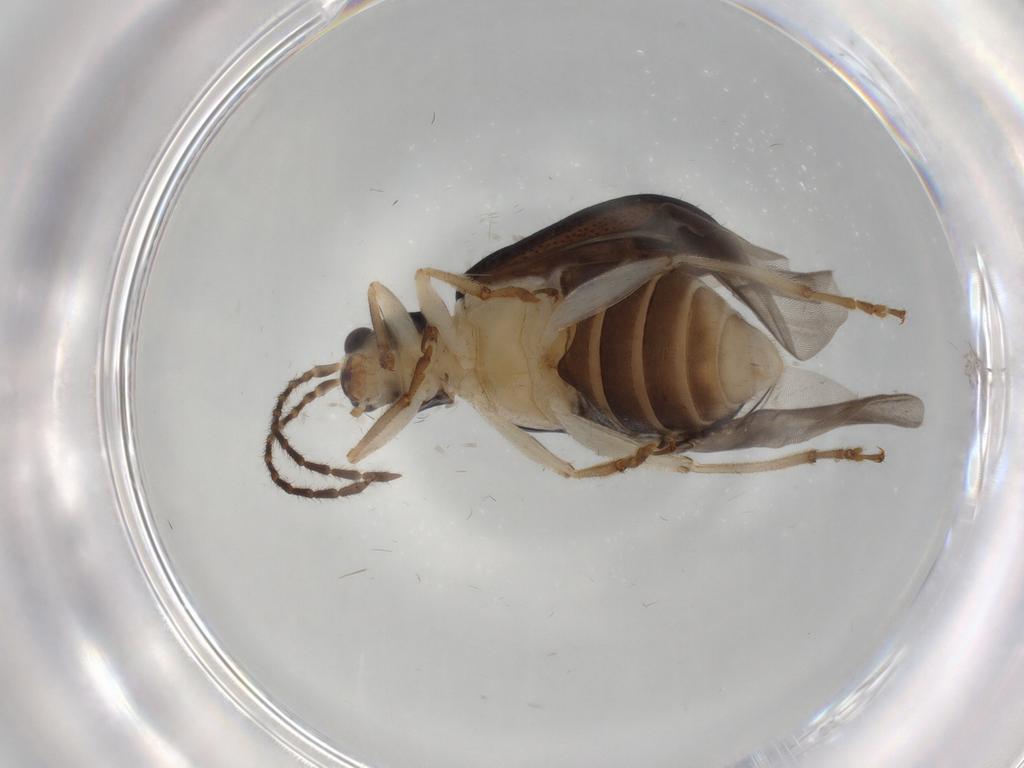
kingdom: Animalia
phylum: Arthropoda
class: Insecta
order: Coleoptera
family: Chrysomelidae
